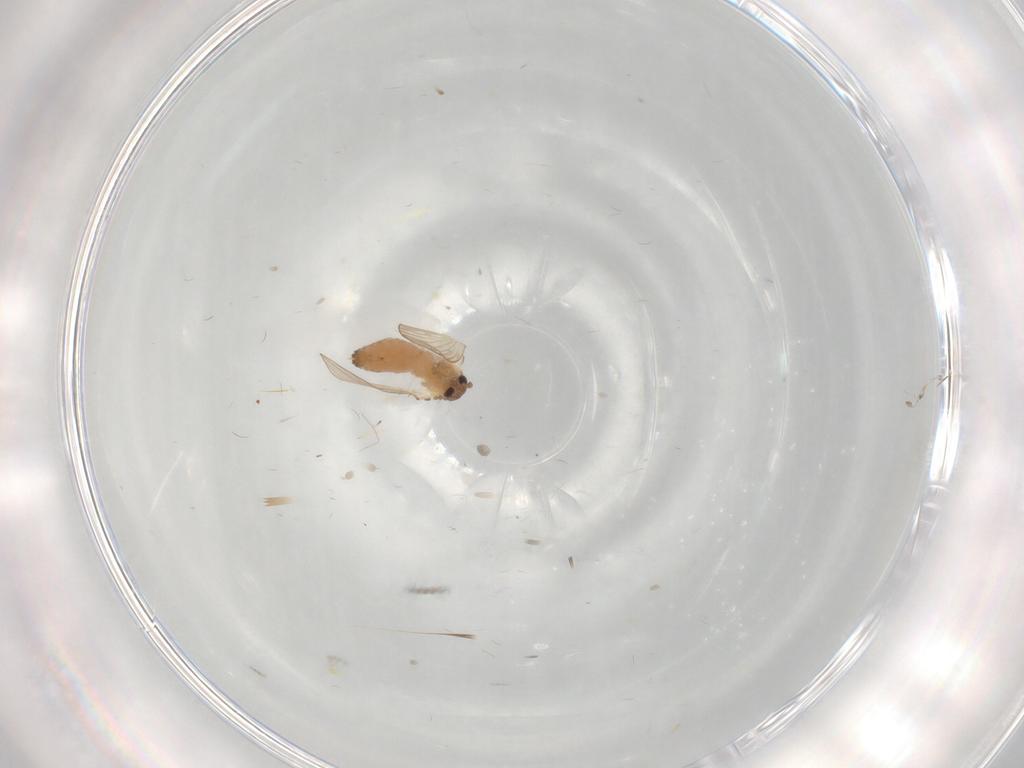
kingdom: Animalia
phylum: Arthropoda
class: Insecta
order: Diptera
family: Psychodidae
